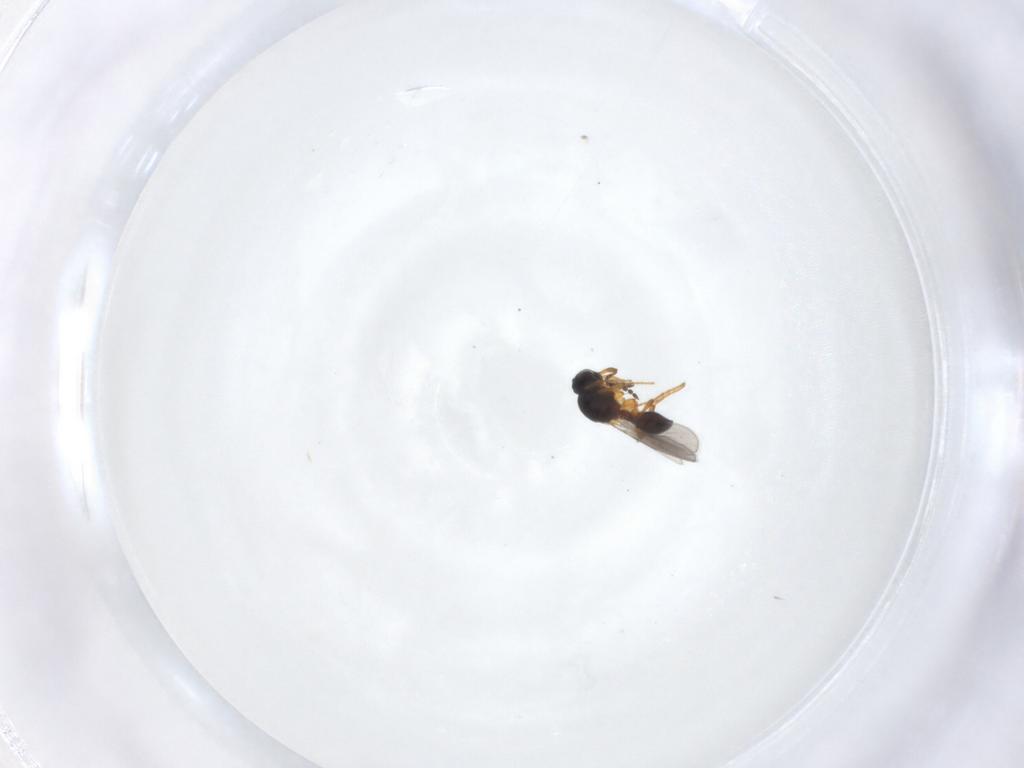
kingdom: Animalia
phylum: Arthropoda
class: Insecta
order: Hymenoptera
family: Platygastridae
